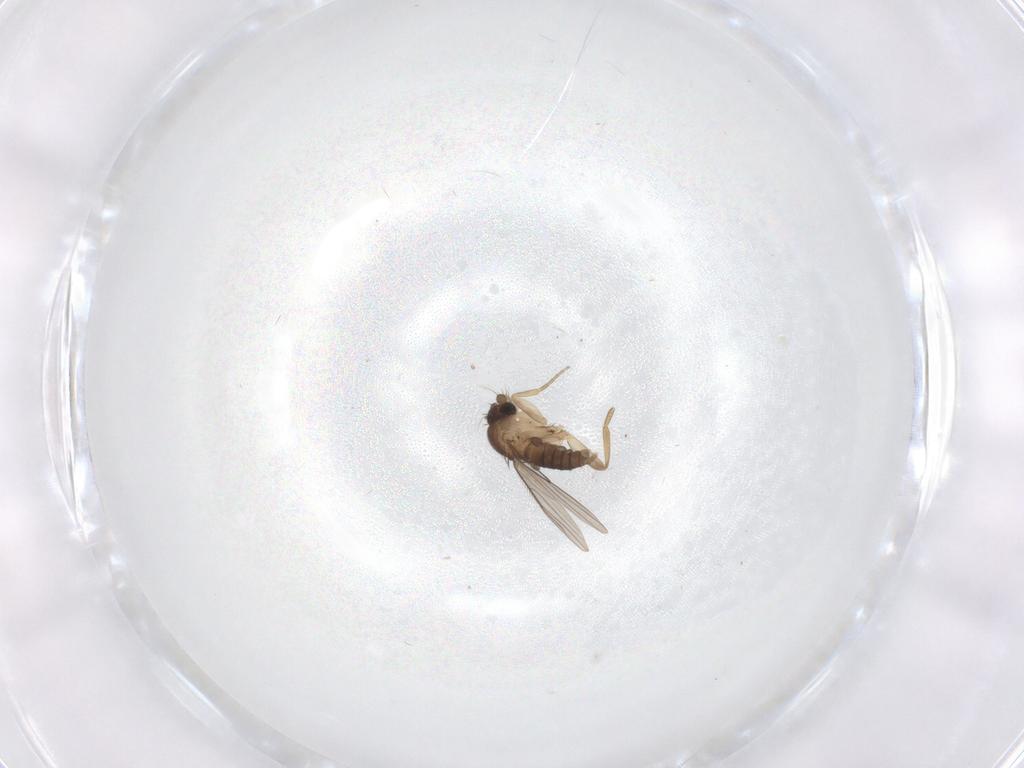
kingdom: Animalia
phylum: Arthropoda
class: Insecta
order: Diptera
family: Phoridae
